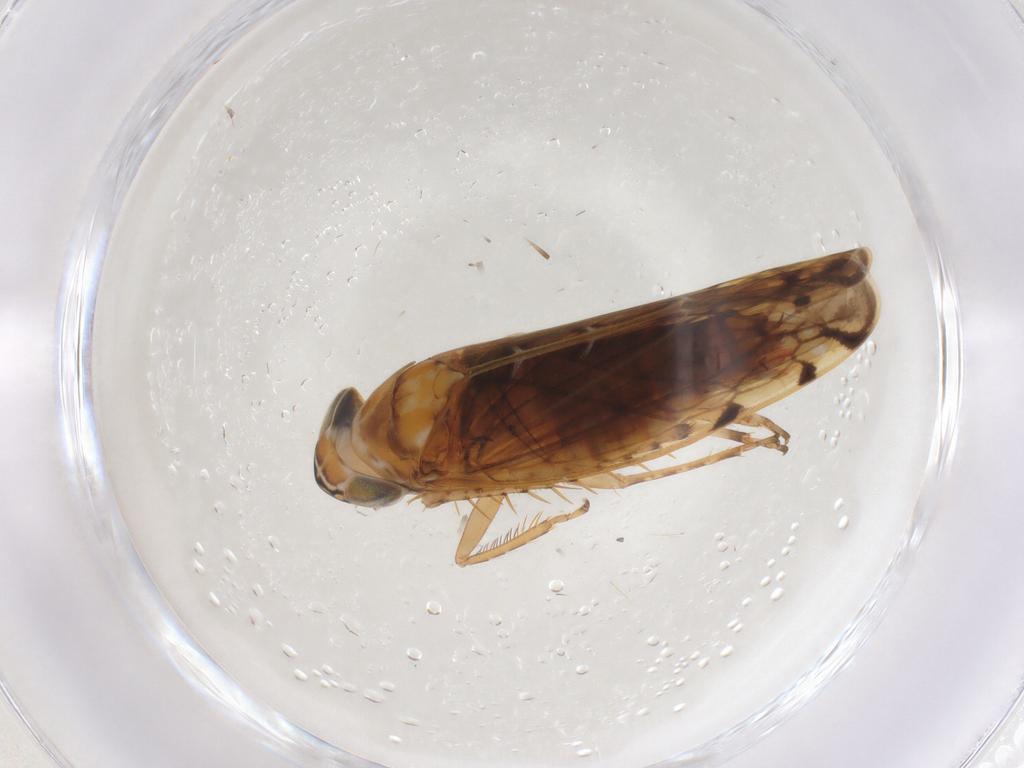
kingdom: Animalia
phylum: Arthropoda
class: Insecta
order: Hemiptera
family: Cicadellidae
